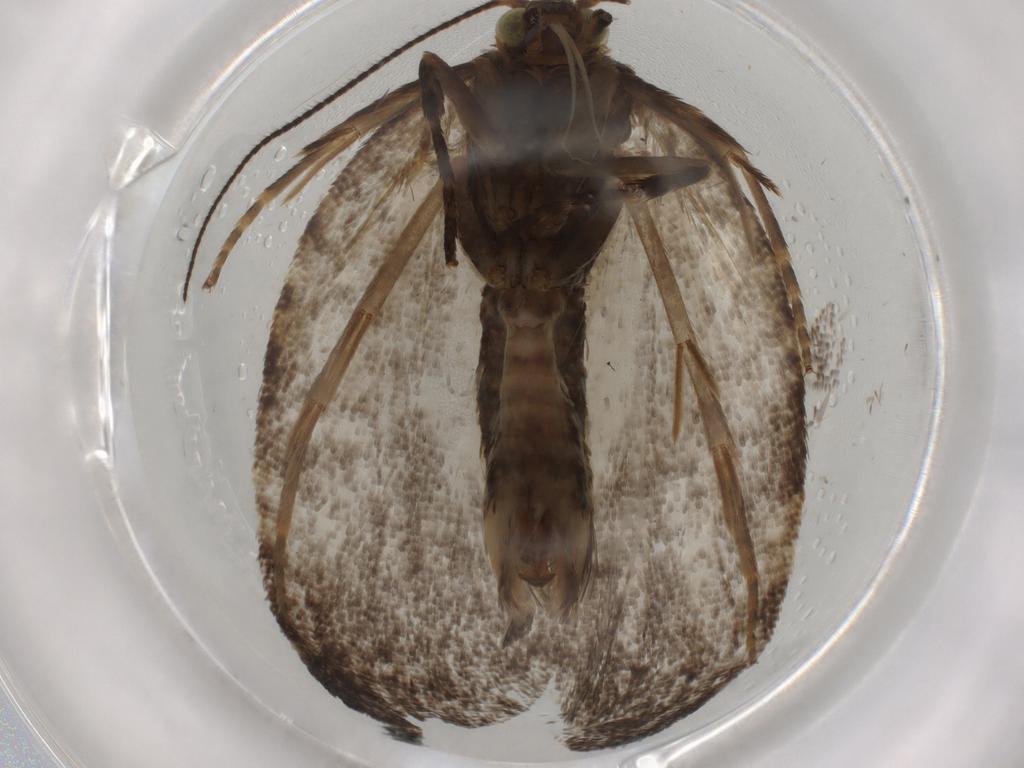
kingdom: Animalia
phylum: Arthropoda
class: Insecta
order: Lepidoptera
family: Tortricidae
